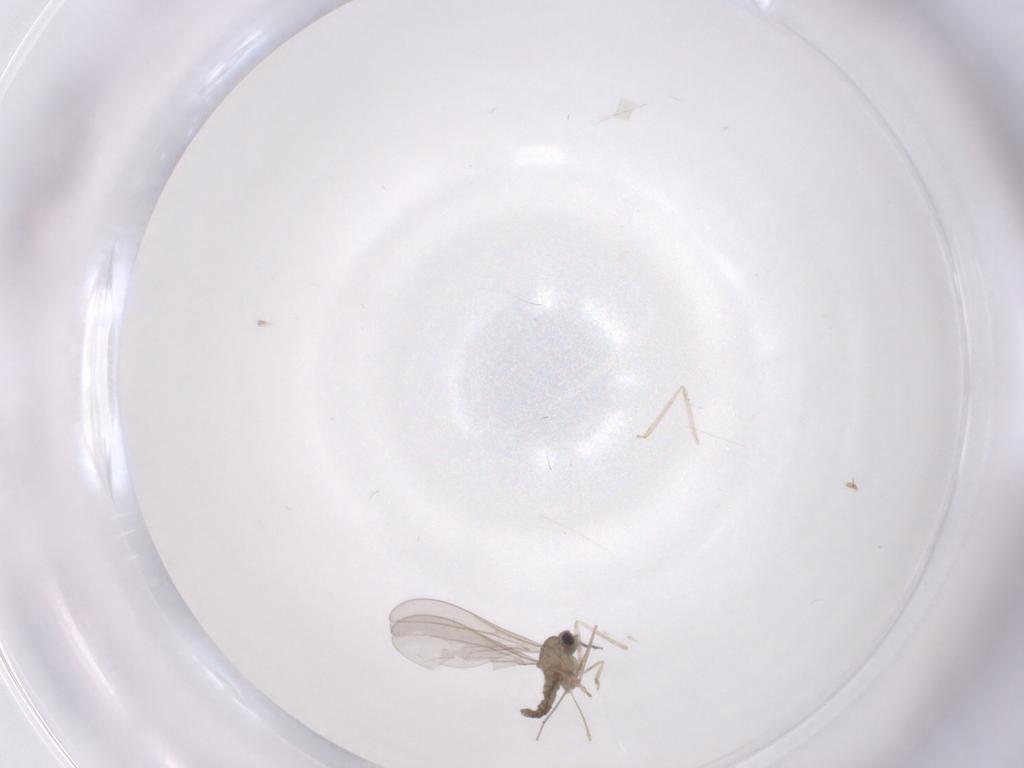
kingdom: Animalia
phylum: Arthropoda
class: Insecta
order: Diptera
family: Cecidomyiidae
